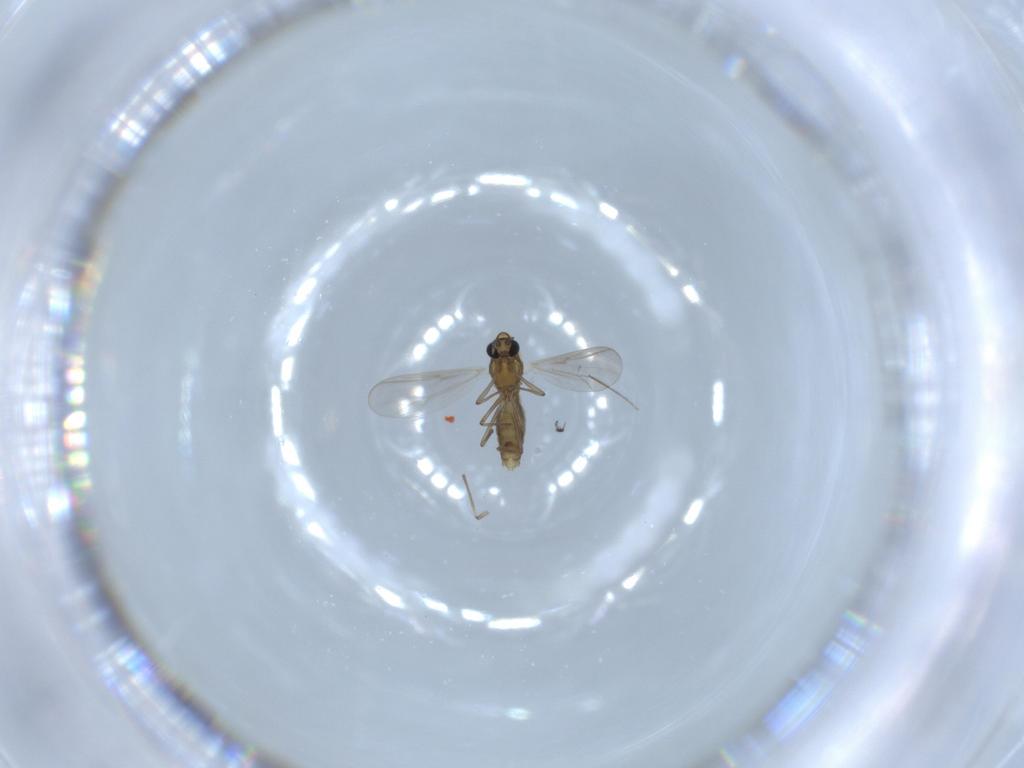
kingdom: Animalia
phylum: Arthropoda
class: Insecta
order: Diptera
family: Chironomidae
